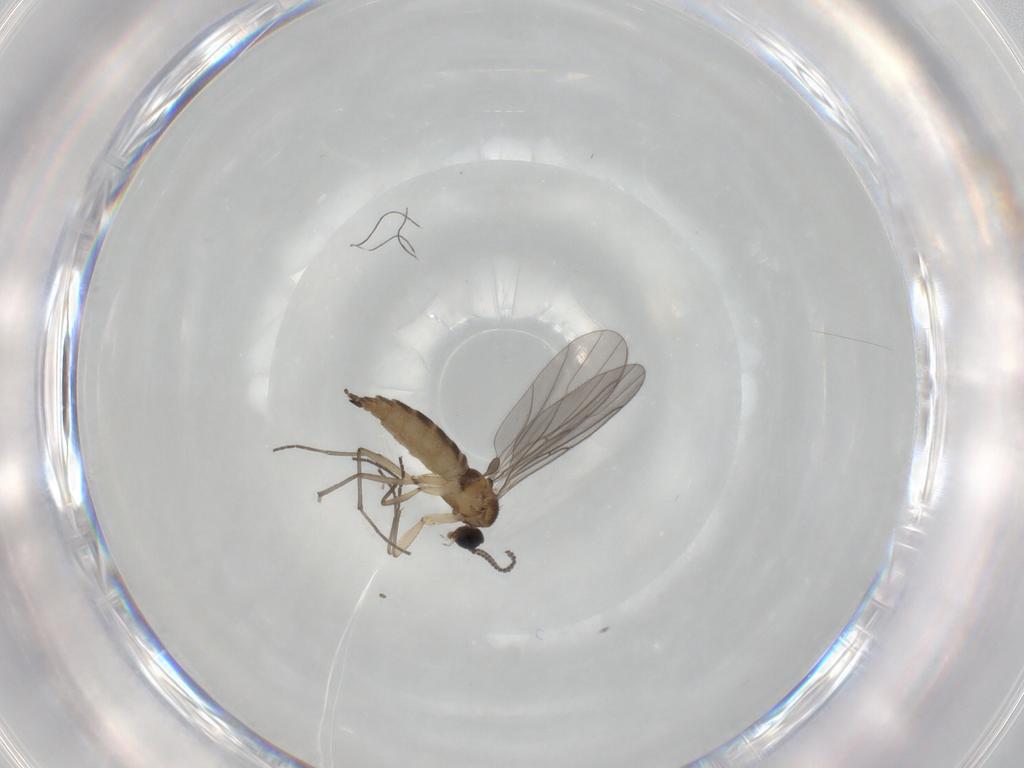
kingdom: Animalia
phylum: Arthropoda
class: Insecta
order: Diptera
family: Sciaridae
